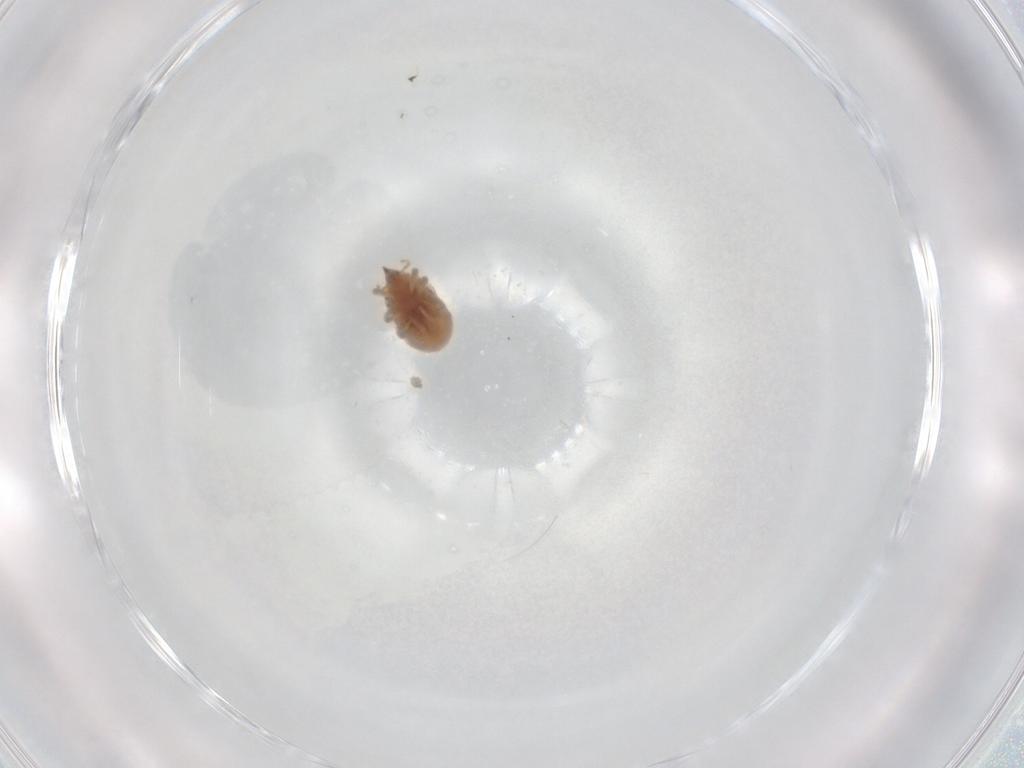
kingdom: Animalia
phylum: Arthropoda
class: Arachnida
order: Trombidiformes
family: Bdellidae
